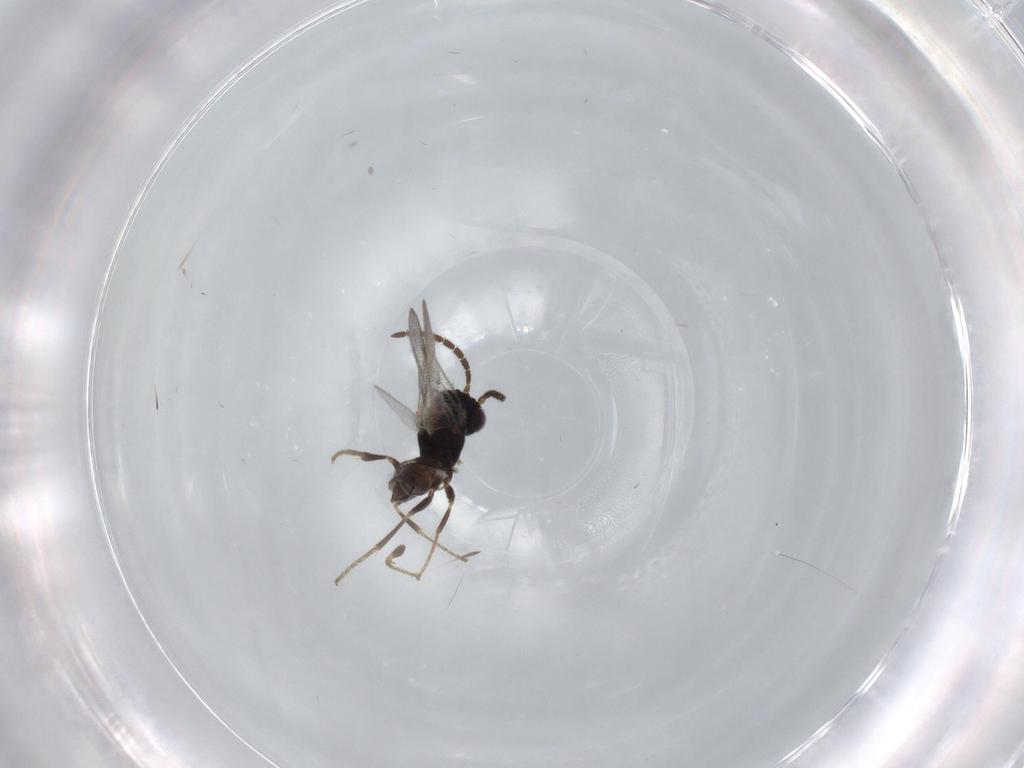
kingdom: Animalia
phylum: Arthropoda
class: Insecta
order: Hymenoptera
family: Dryinidae
